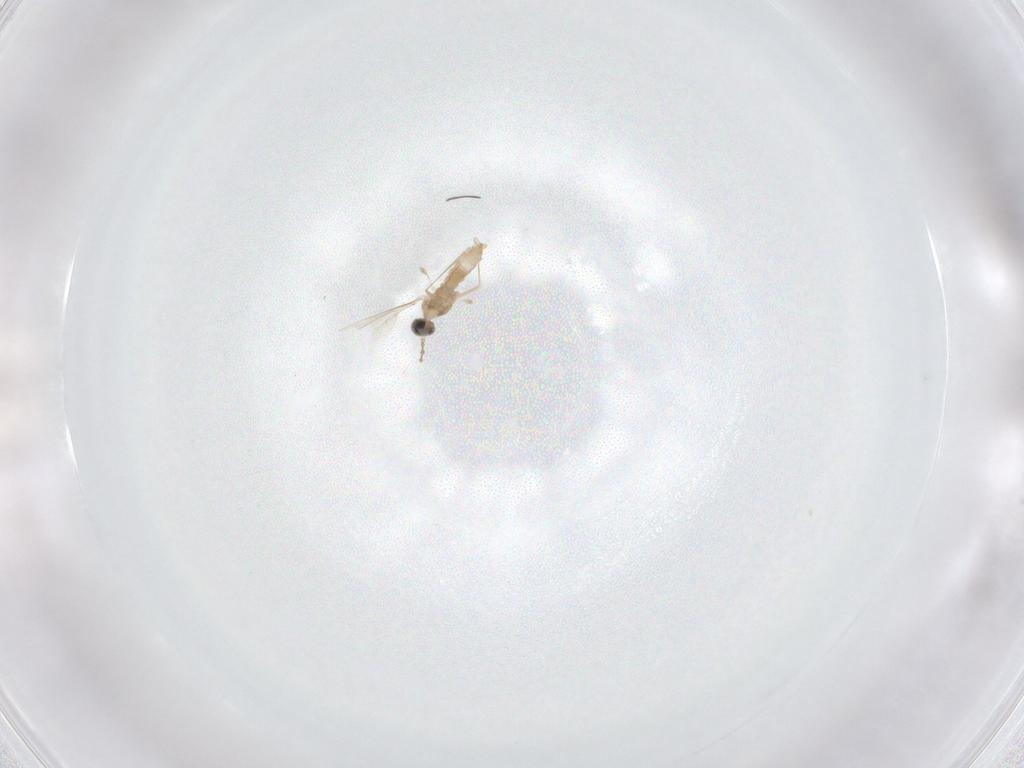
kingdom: Animalia
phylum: Arthropoda
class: Insecta
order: Diptera
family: Cecidomyiidae
